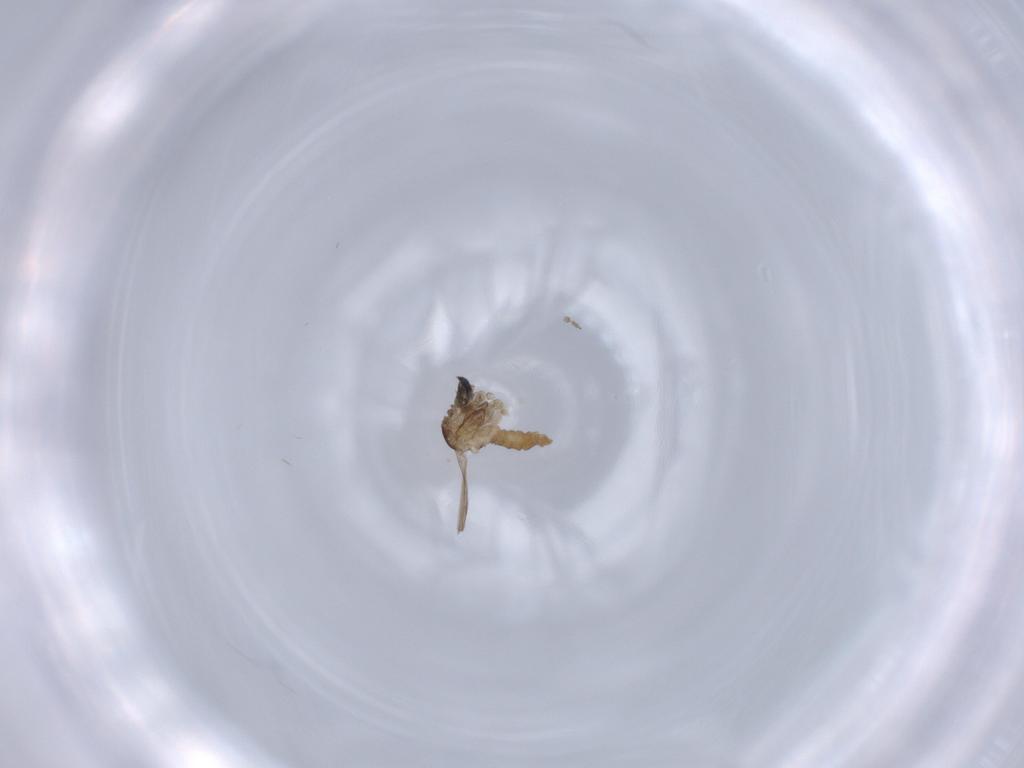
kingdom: Animalia
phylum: Arthropoda
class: Insecta
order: Diptera
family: Cecidomyiidae
